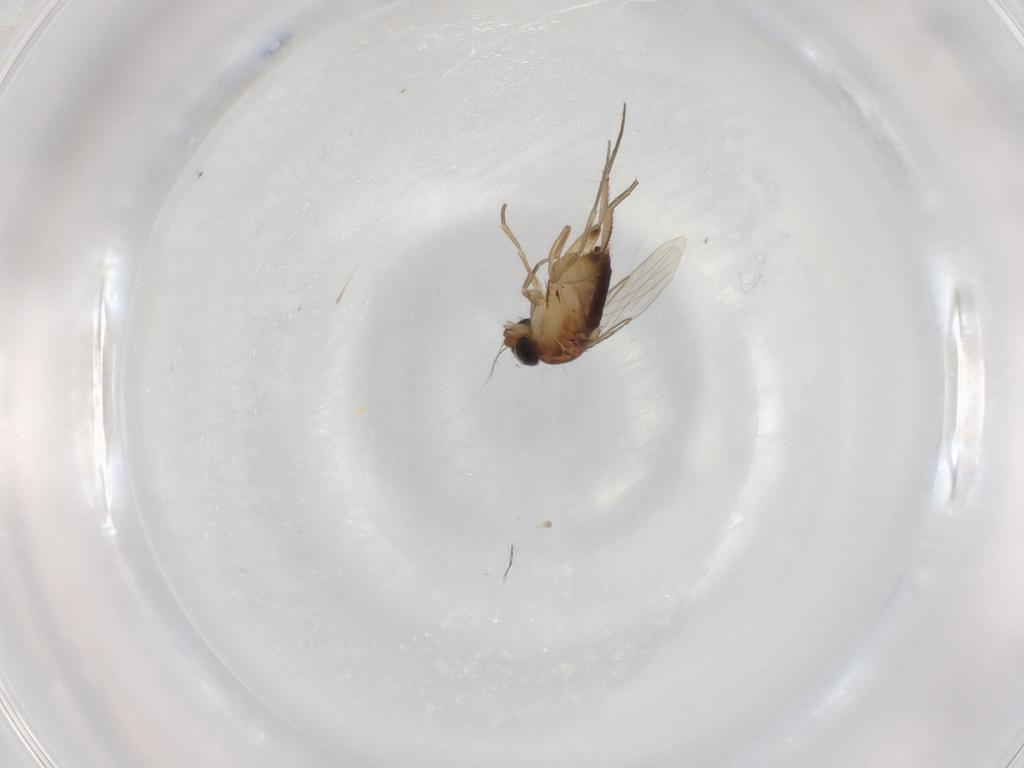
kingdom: Animalia
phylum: Arthropoda
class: Insecta
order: Diptera
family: Phoridae
